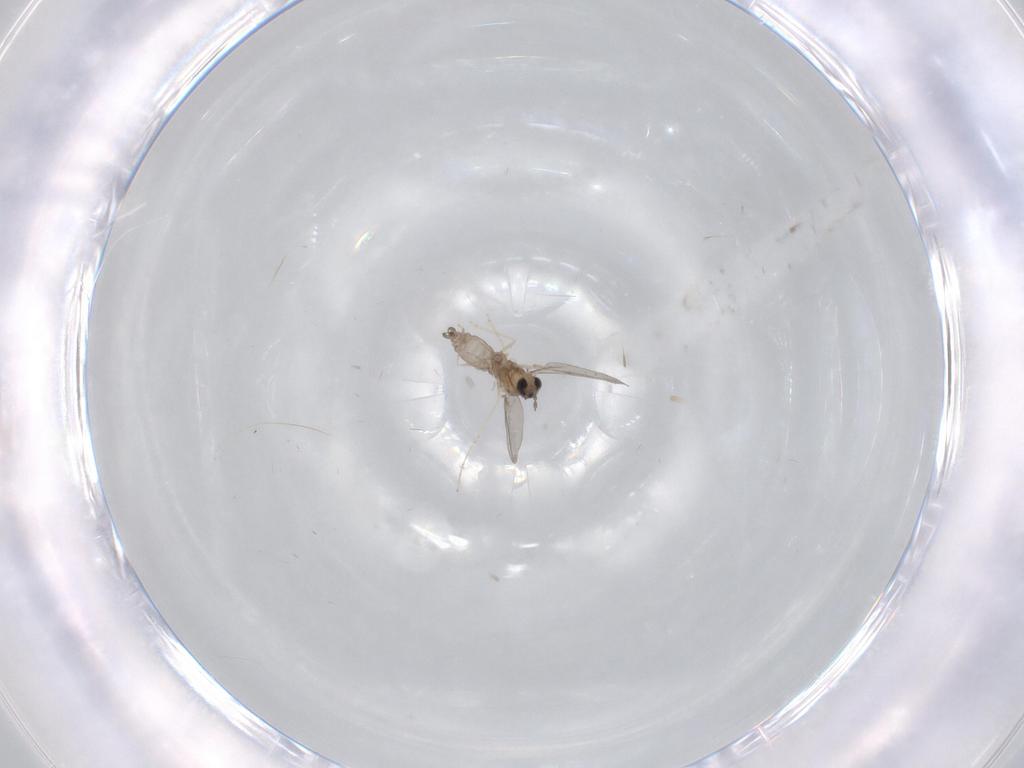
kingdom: Animalia
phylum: Arthropoda
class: Insecta
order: Diptera
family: Cecidomyiidae
